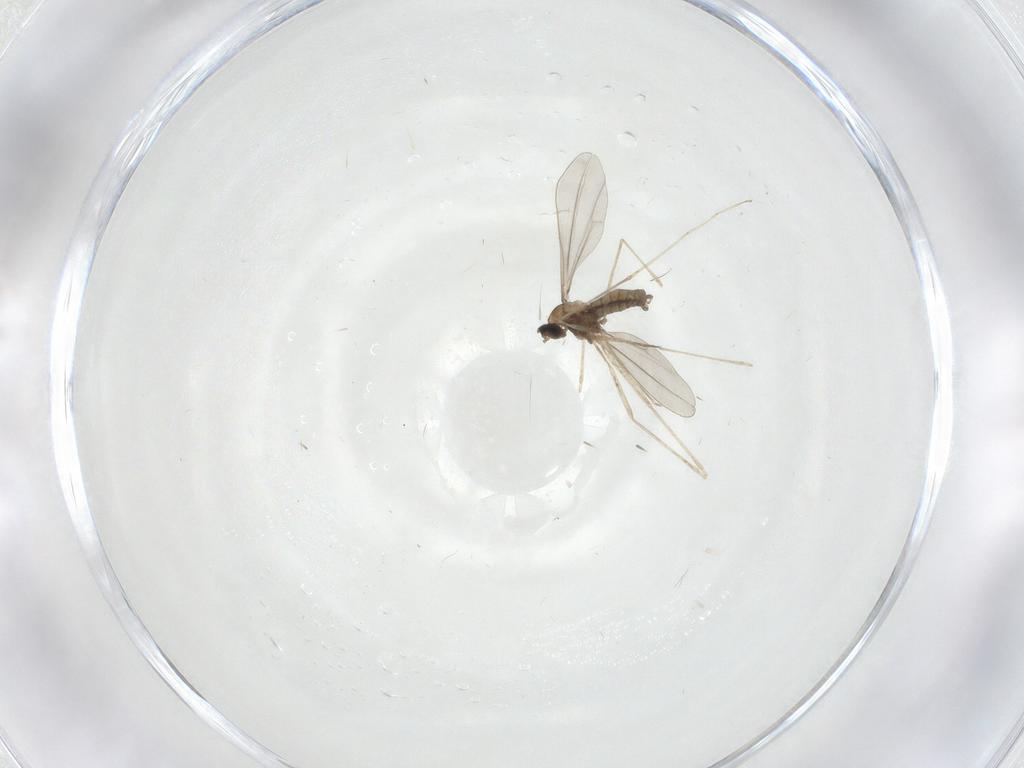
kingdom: Animalia
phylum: Arthropoda
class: Insecta
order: Diptera
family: Cecidomyiidae
